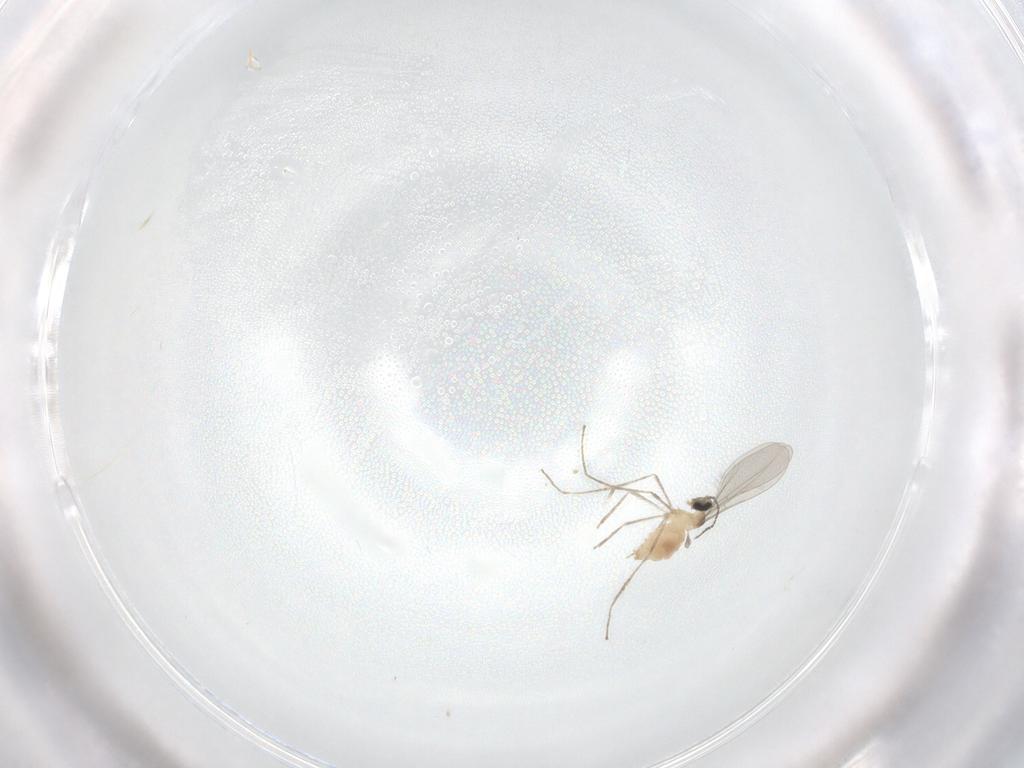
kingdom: Animalia
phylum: Arthropoda
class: Insecta
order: Diptera
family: Cecidomyiidae
